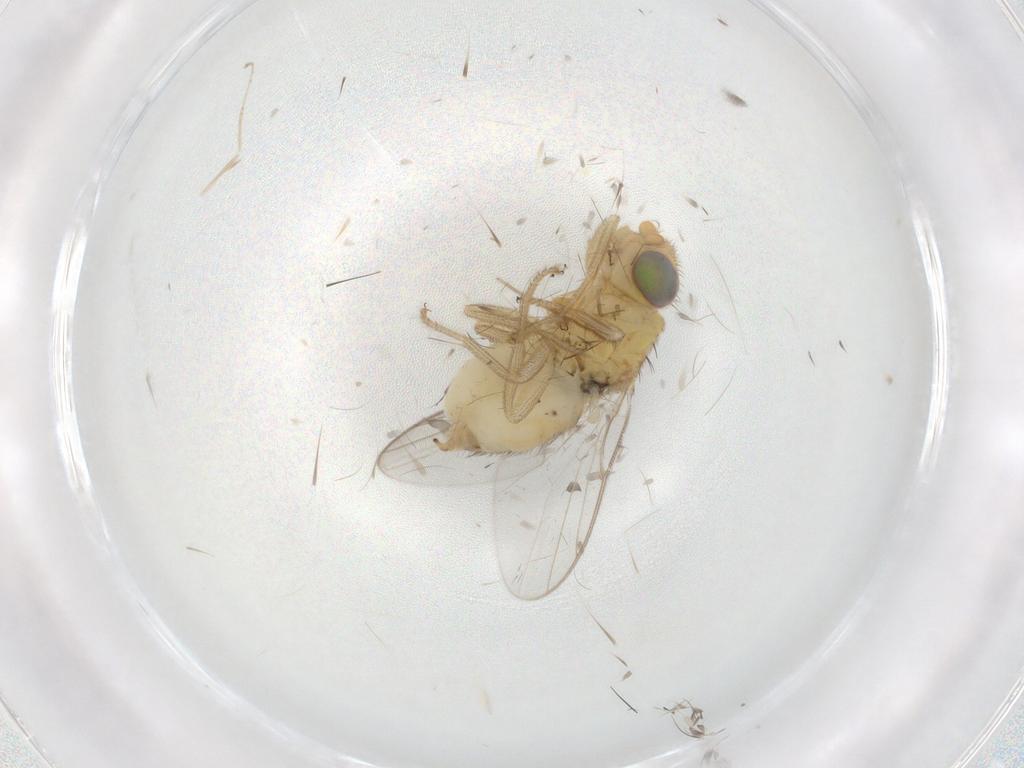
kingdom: Animalia
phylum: Arthropoda
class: Insecta
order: Diptera
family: Chloropidae
